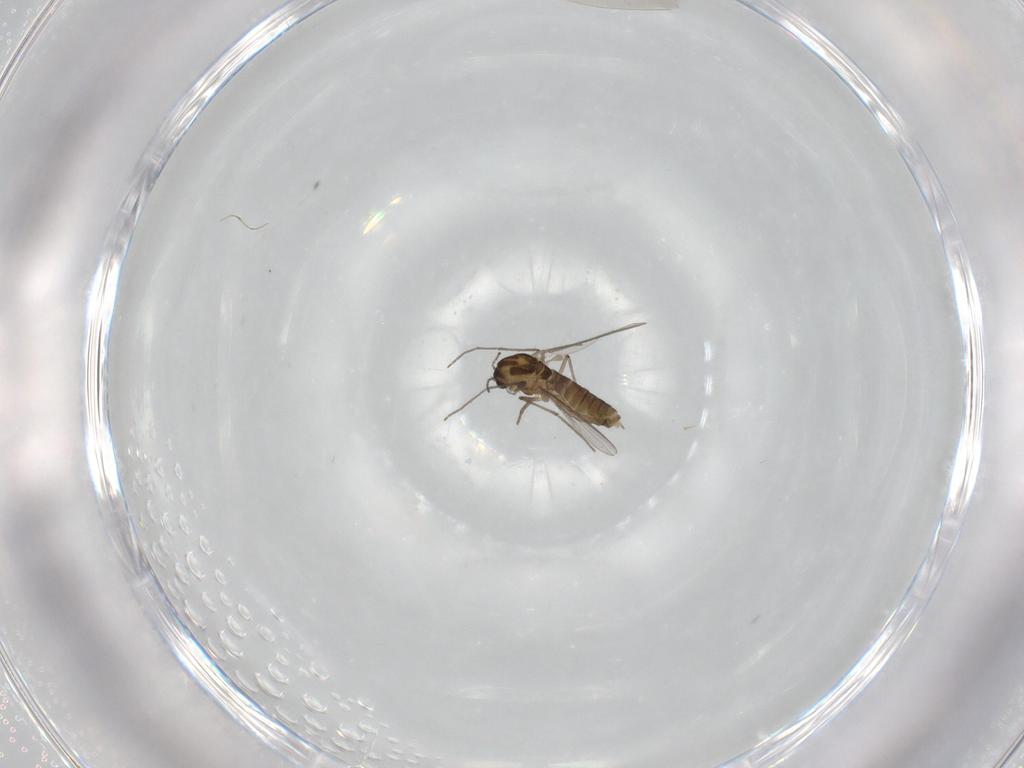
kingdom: Animalia
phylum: Arthropoda
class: Insecta
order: Diptera
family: Chironomidae
